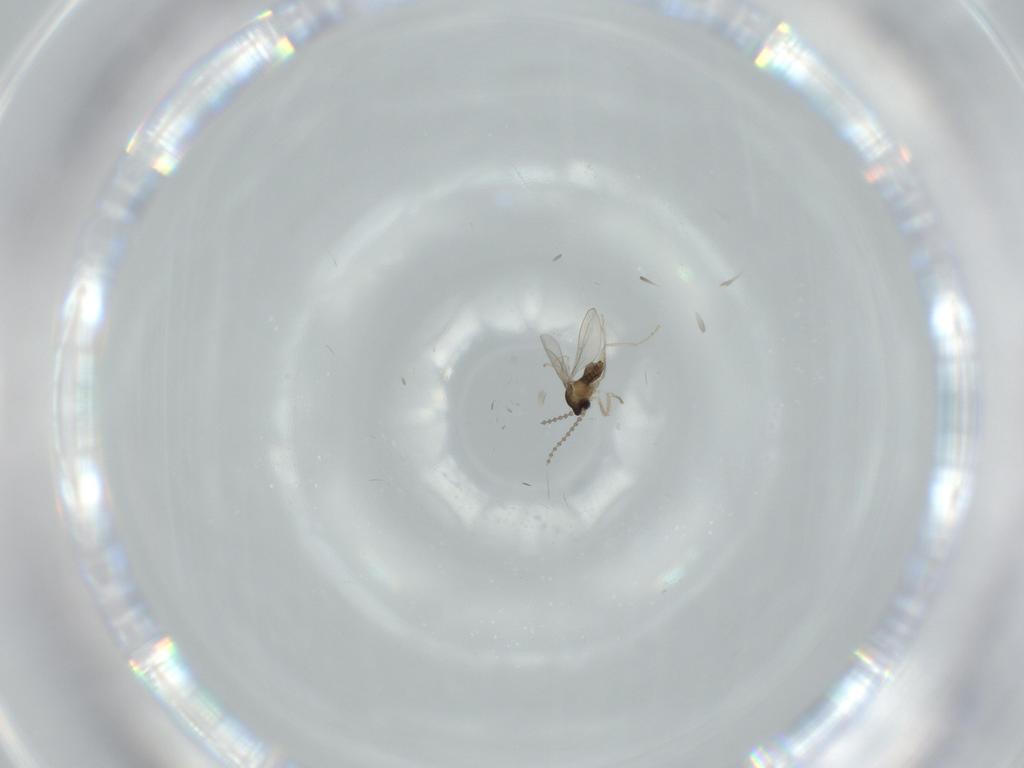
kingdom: Animalia
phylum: Arthropoda
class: Insecta
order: Diptera
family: Cecidomyiidae
